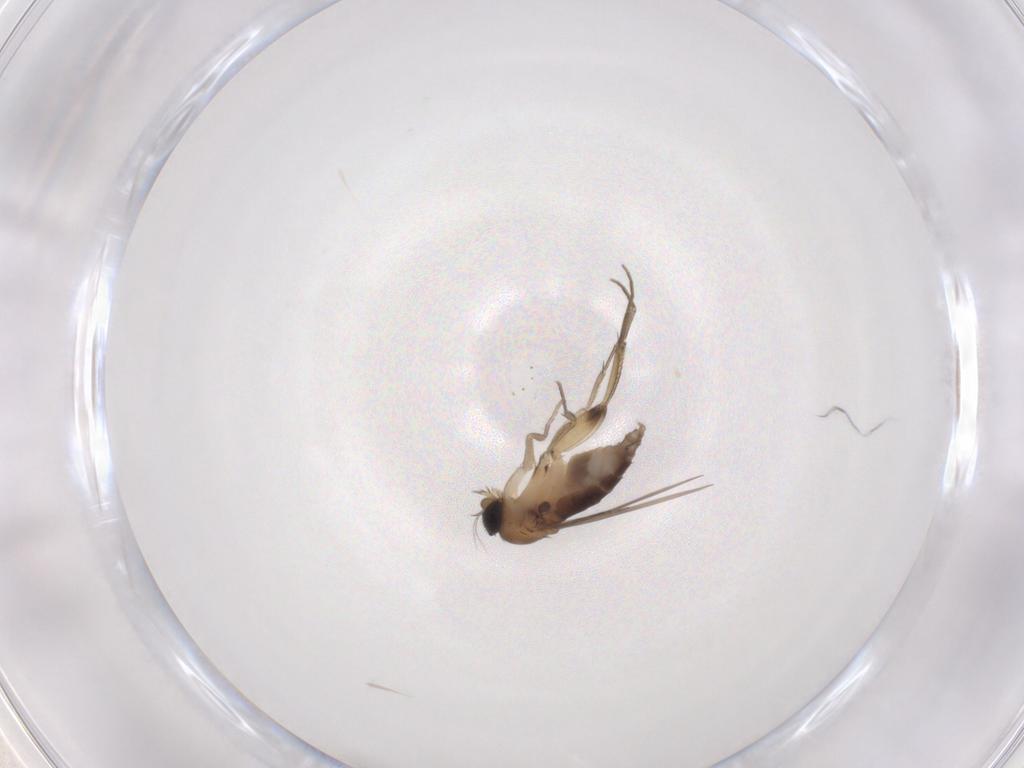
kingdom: Animalia
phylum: Arthropoda
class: Insecta
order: Diptera
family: Phoridae
